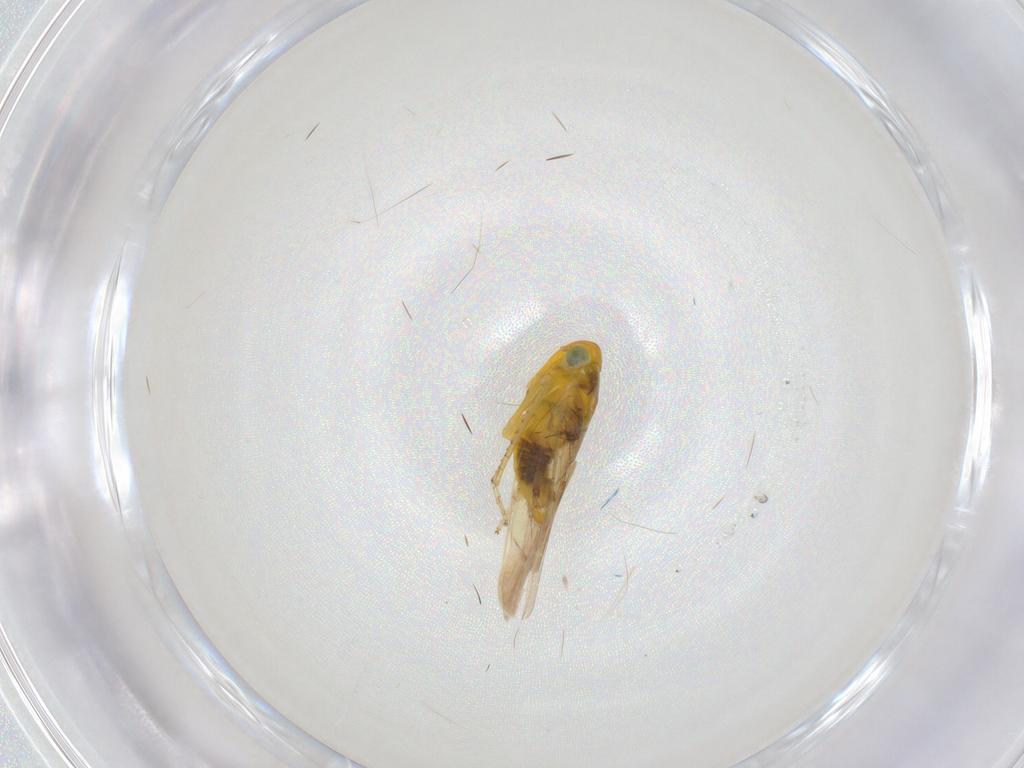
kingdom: Animalia
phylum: Arthropoda
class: Insecta
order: Hemiptera
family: Cicadellidae
